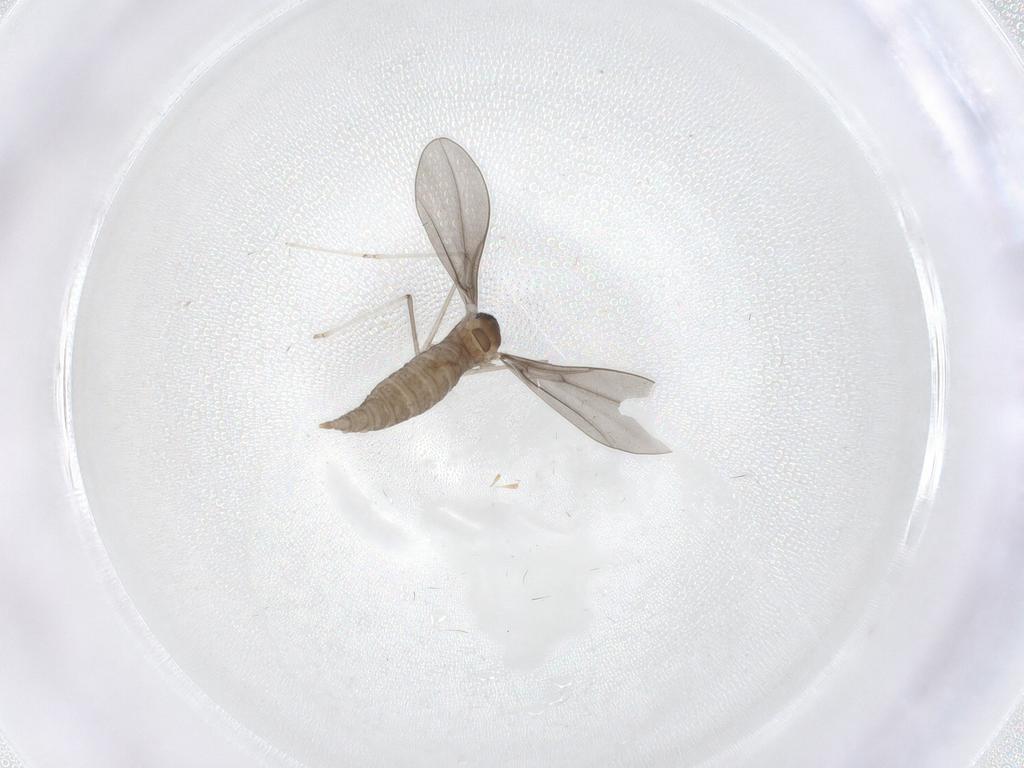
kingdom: Animalia
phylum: Arthropoda
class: Insecta
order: Diptera
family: Cecidomyiidae
